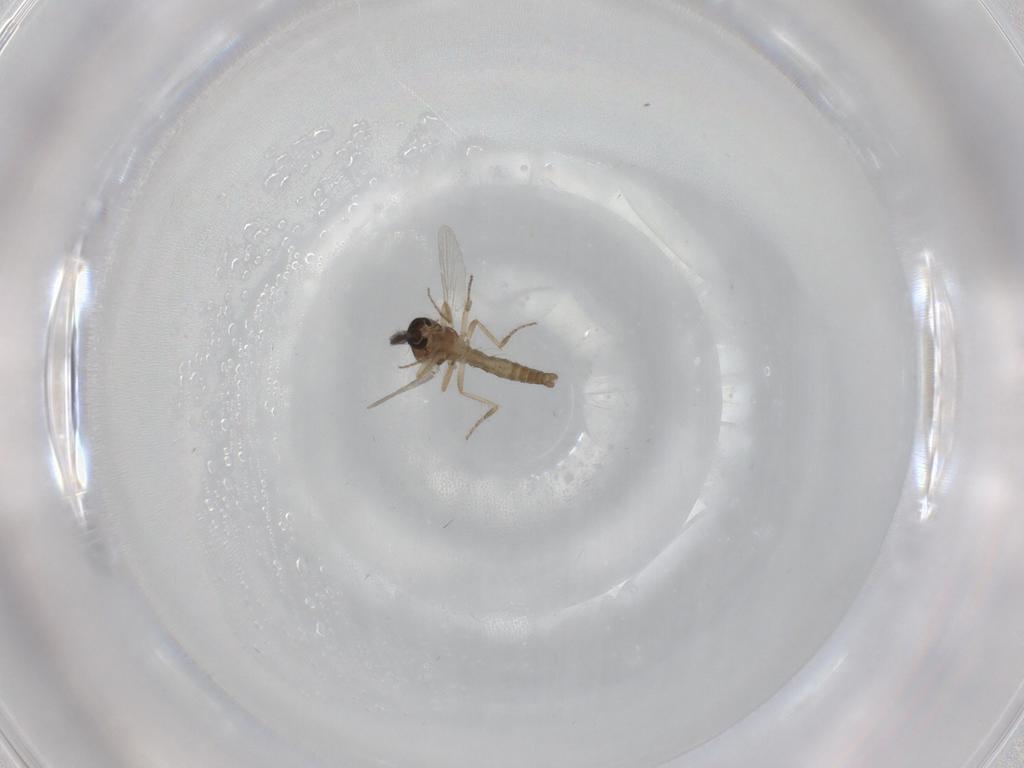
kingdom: Animalia
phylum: Arthropoda
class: Insecta
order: Diptera
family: Ceratopogonidae
